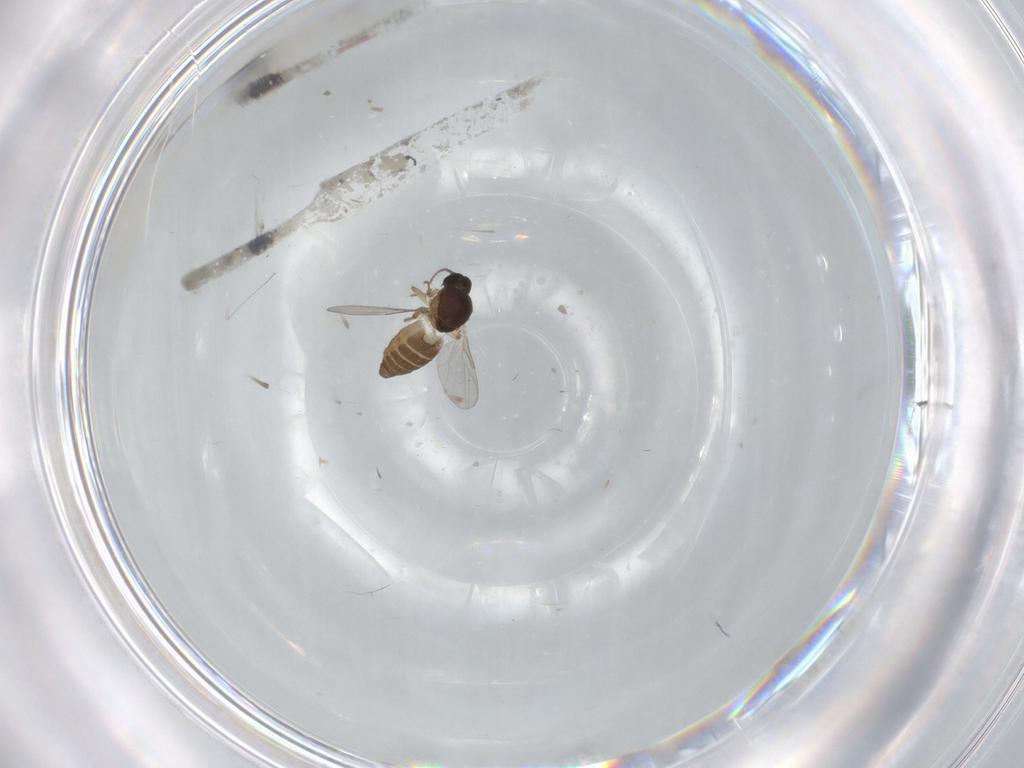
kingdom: Animalia
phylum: Arthropoda
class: Insecta
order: Diptera
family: Ceratopogonidae
